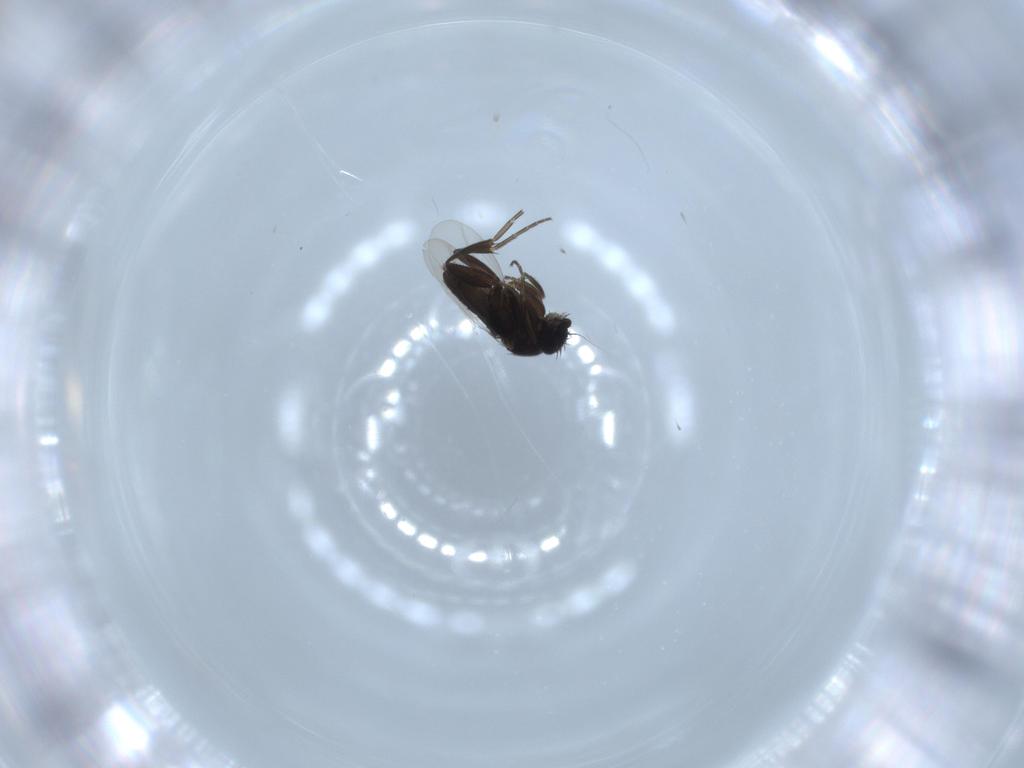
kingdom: Animalia
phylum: Arthropoda
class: Insecta
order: Diptera
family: Phoridae
